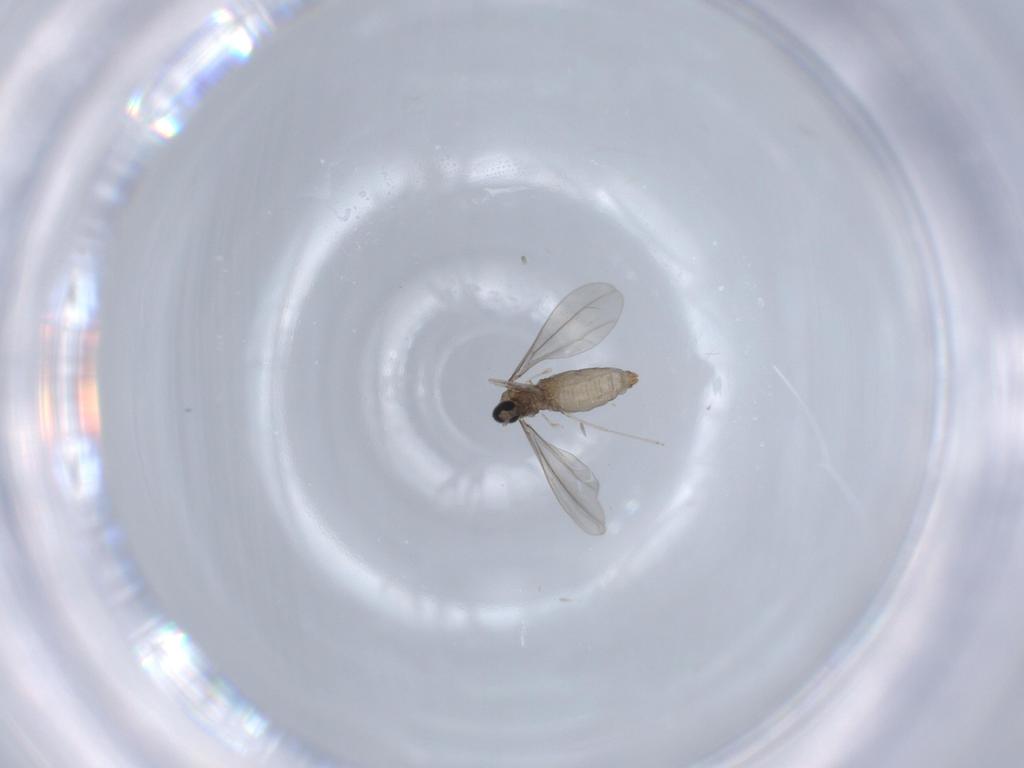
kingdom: Animalia
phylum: Arthropoda
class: Insecta
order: Diptera
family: Cecidomyiidae
